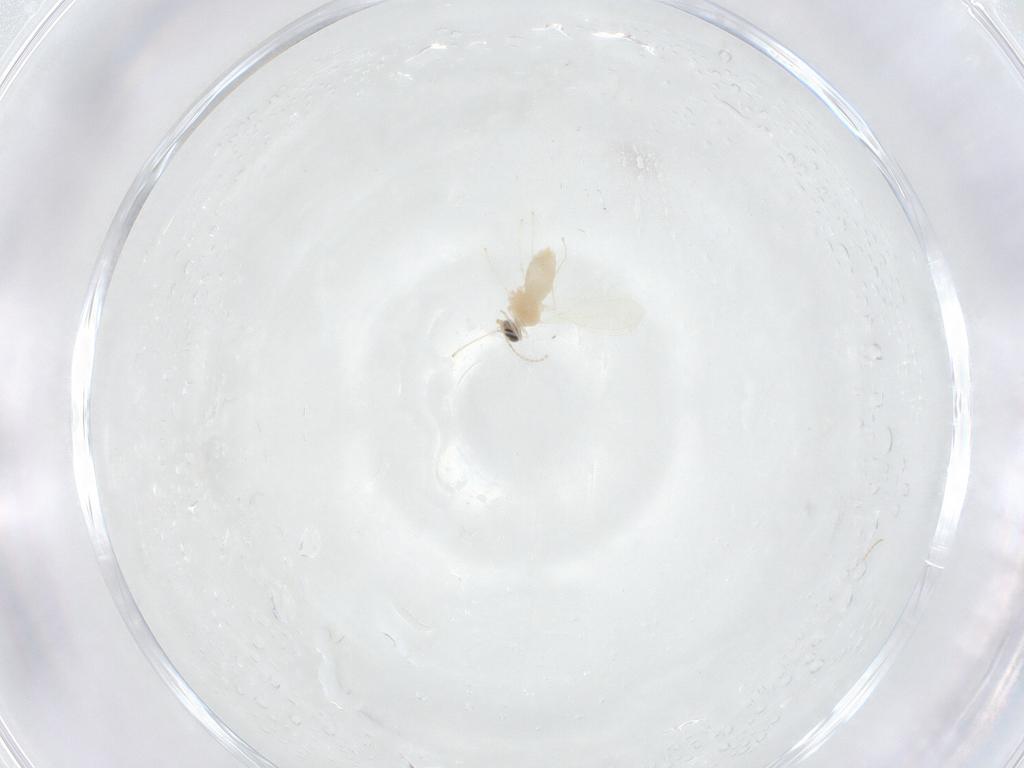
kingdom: Animalia
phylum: Arthropoda
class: Insecta
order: Diptera
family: Cecidomyiidae
